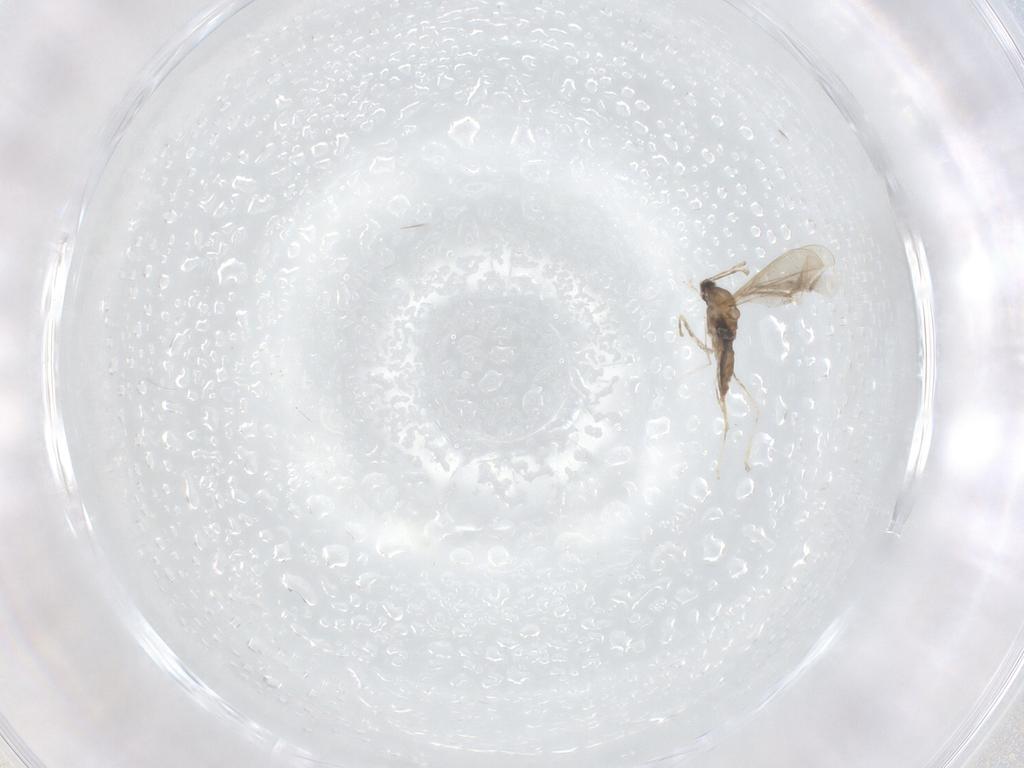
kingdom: Animalia
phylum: Arthropoda
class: Insecta
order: Diptera
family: Cecidomyiidae
